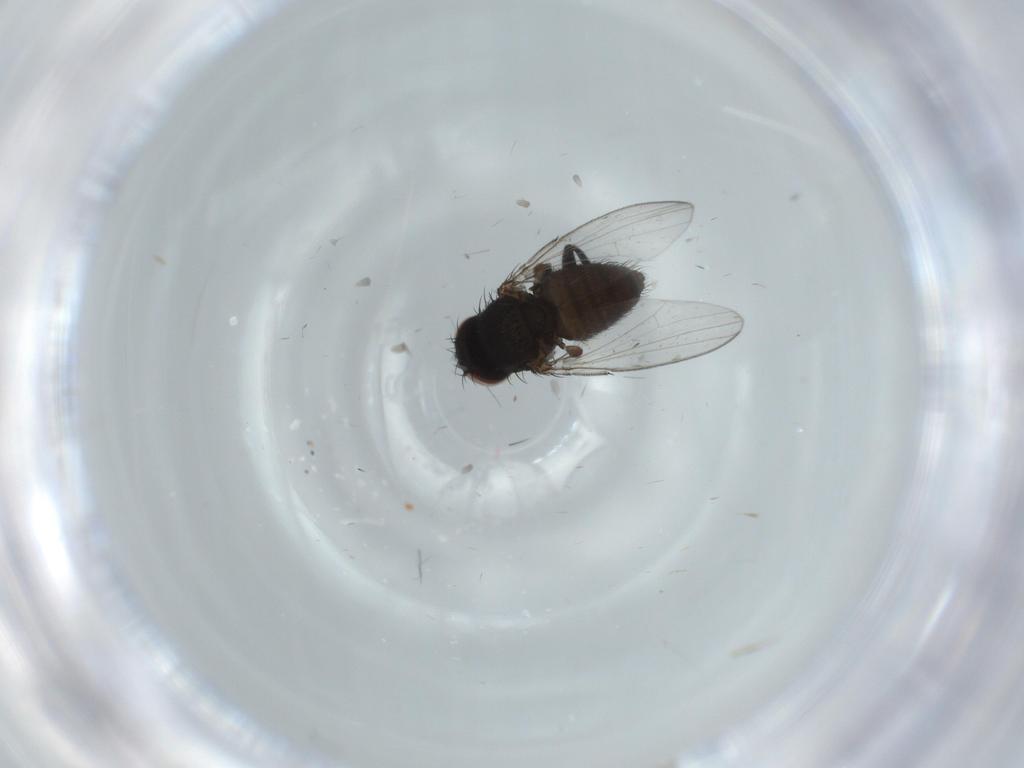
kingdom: Animalia
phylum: Arthropoda
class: Insecta
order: Diptera
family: Milichiidae
